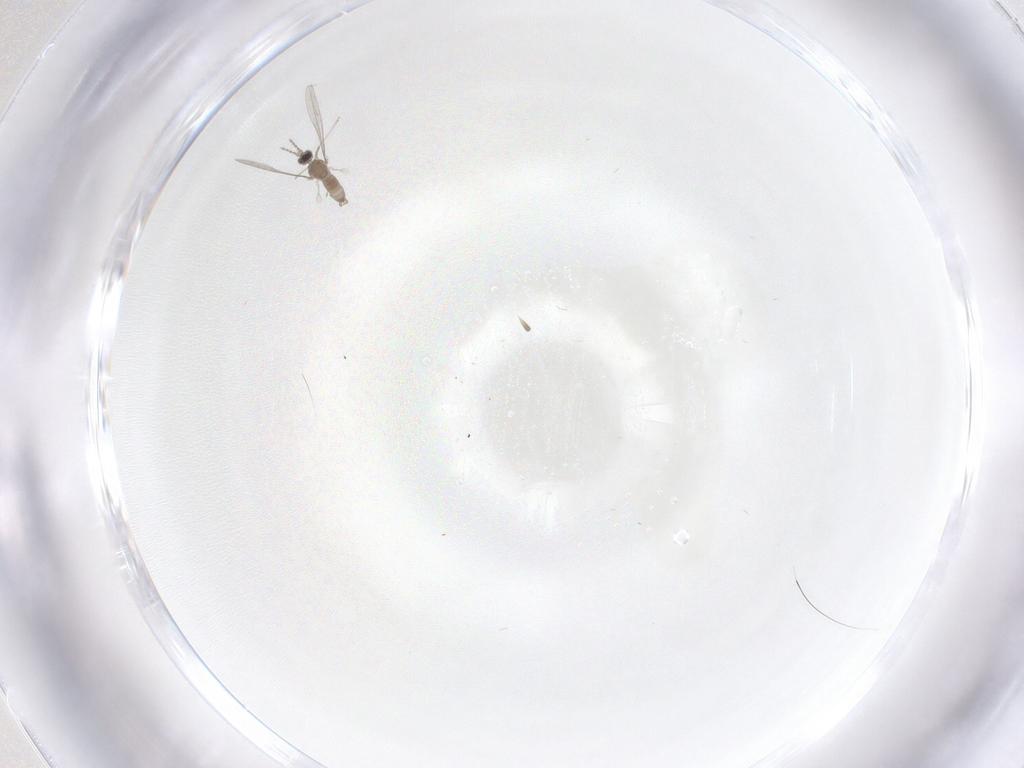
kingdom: Animalia
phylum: Arthropoda
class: Insecta
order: Diptera
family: Cecidomyiidae
